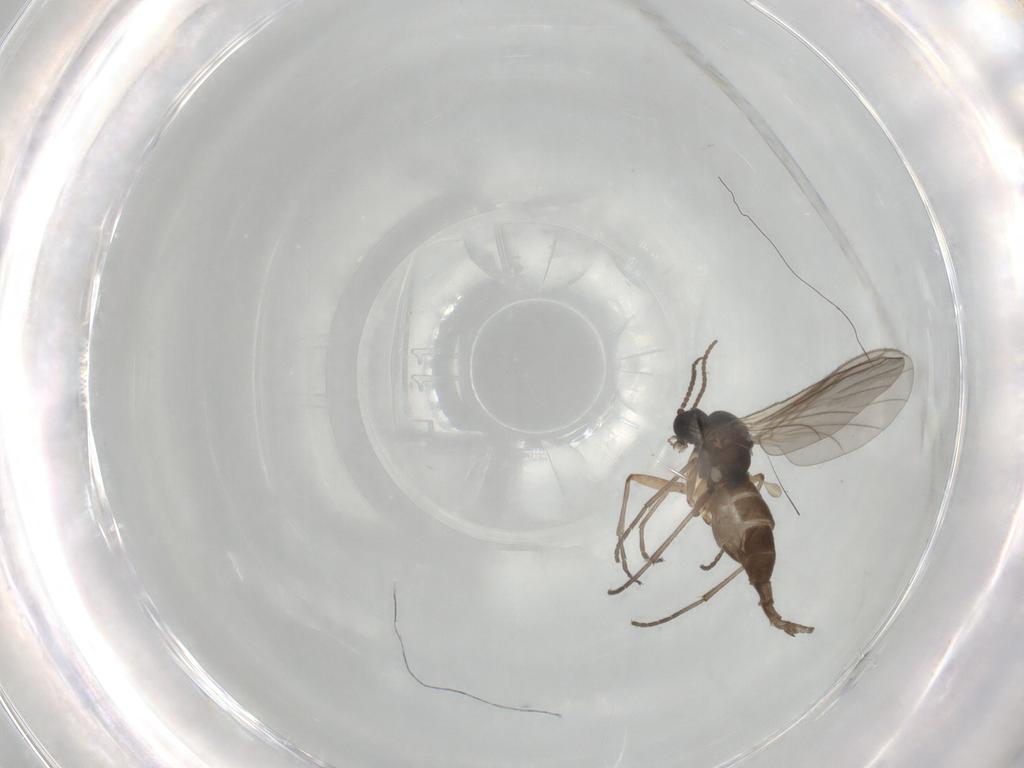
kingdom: Animalia
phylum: Arthropoda
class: Insecta
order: Diptera
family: Sciaridae
